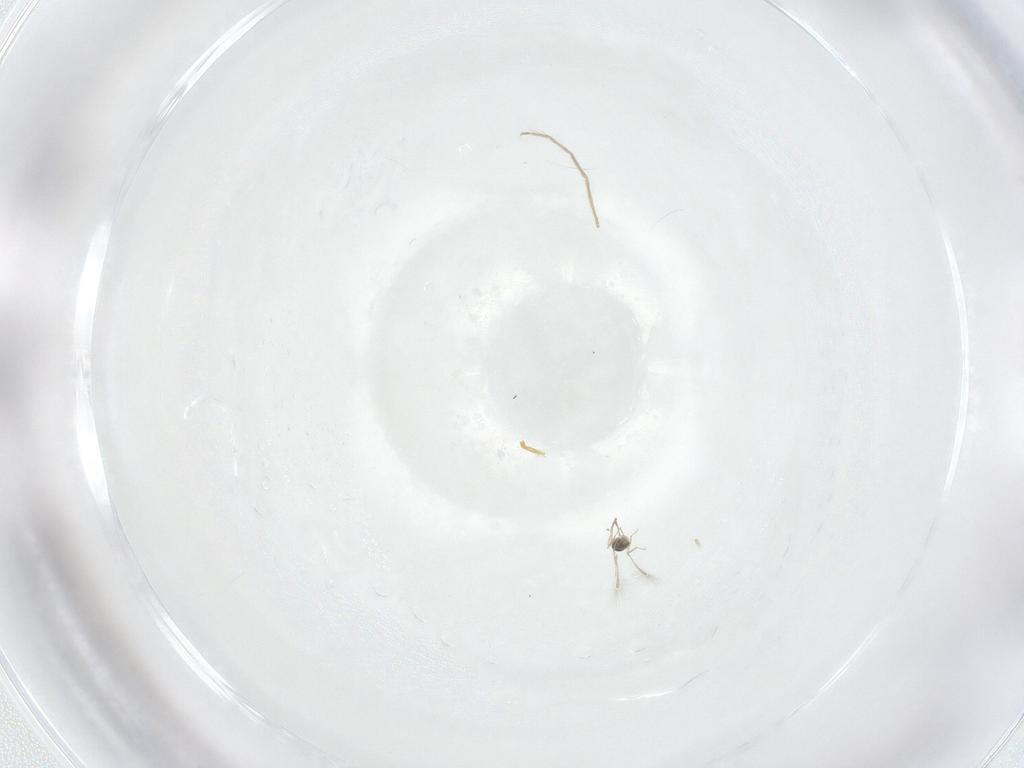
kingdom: Animalia
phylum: Arthropoda
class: Insecta
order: Diptera
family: Chironomidae
